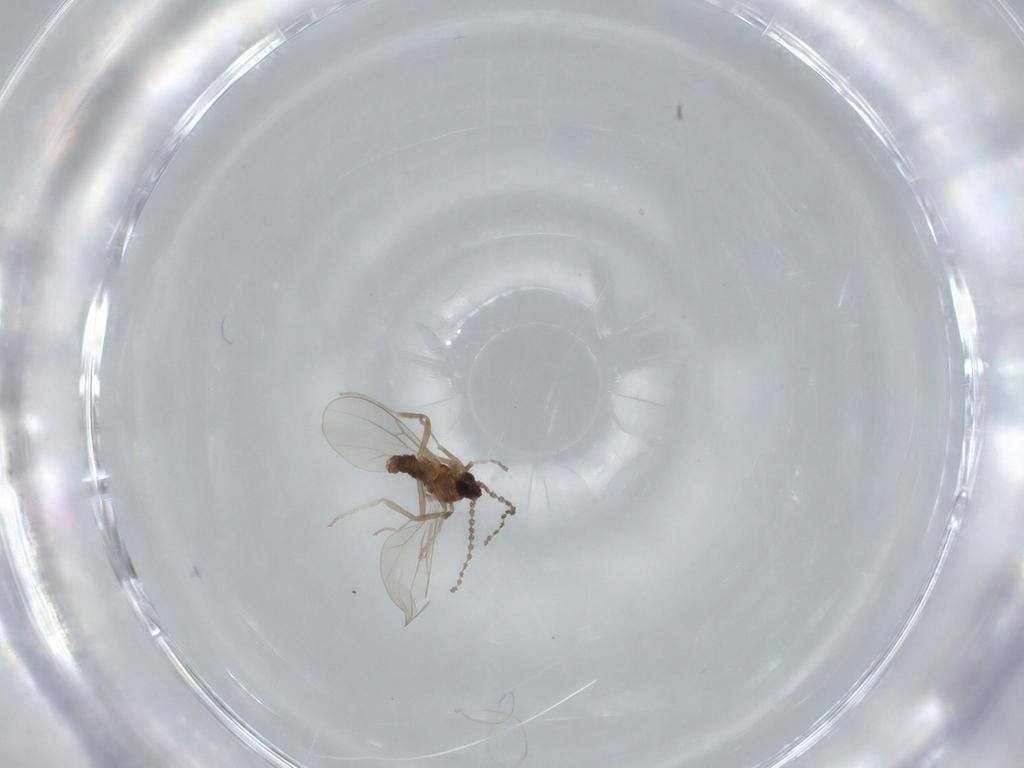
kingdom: Animalia
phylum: Arthropoda
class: Insecta
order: Diptera
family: Cecidomyiidae
